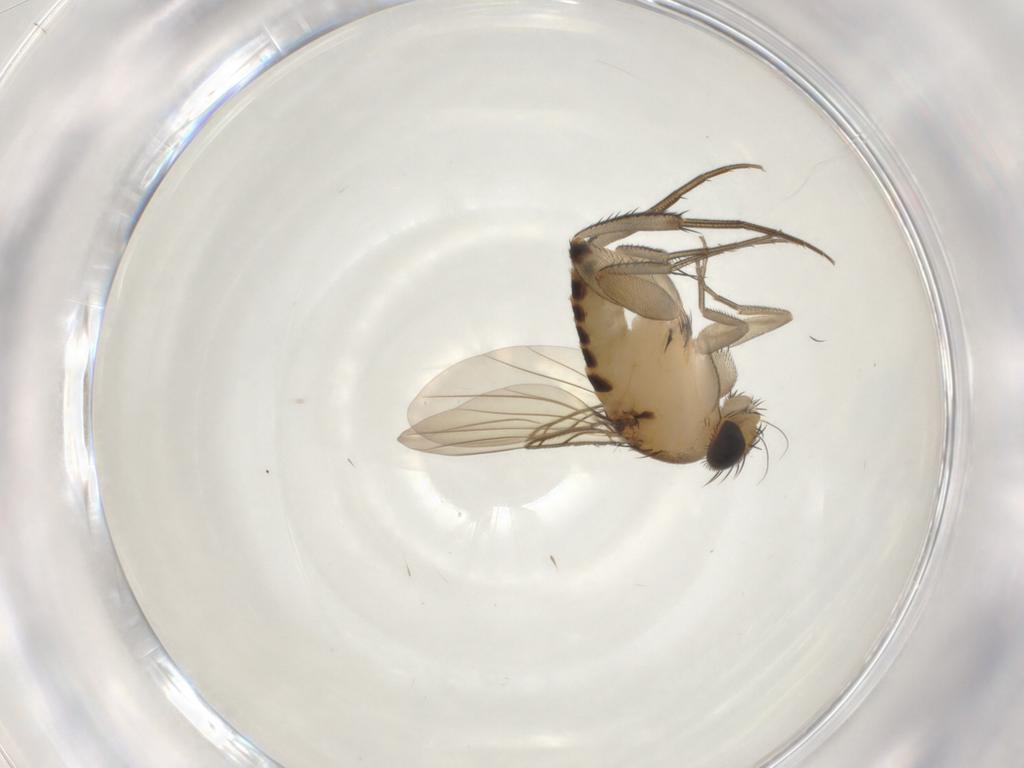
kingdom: Animalia
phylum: Arthropoda
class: Insecta
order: Diptera
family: Phoridae
